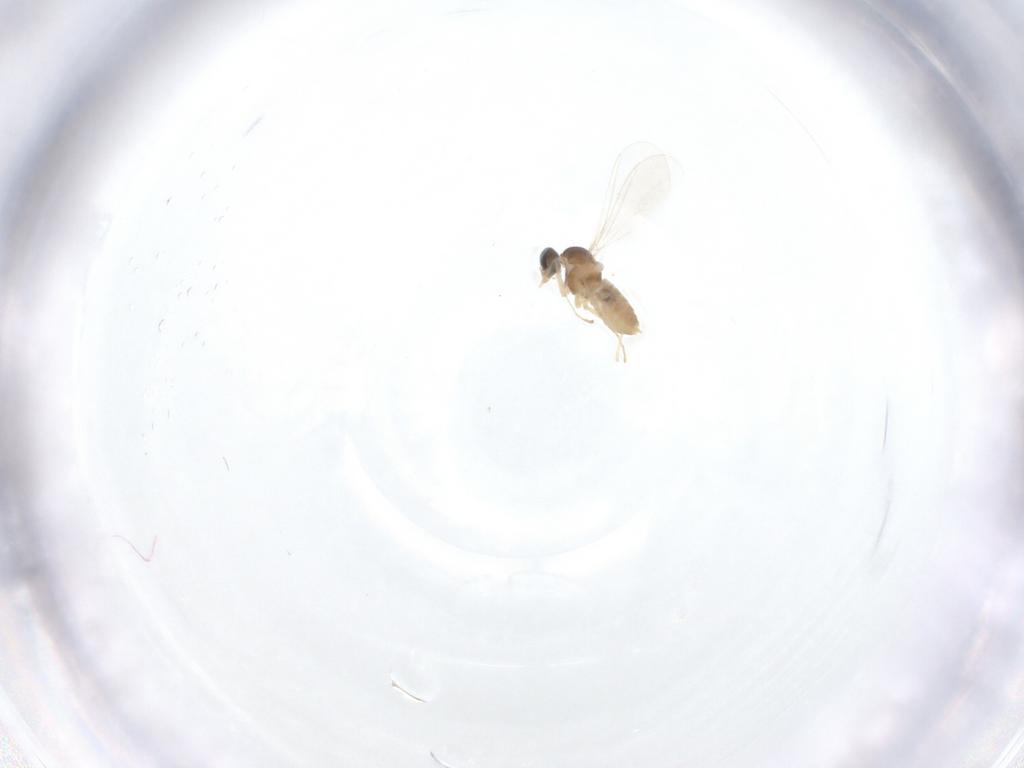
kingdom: Animalia
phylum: Arthropoda
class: Insecta
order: Diptera
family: Cecidomyiidae
